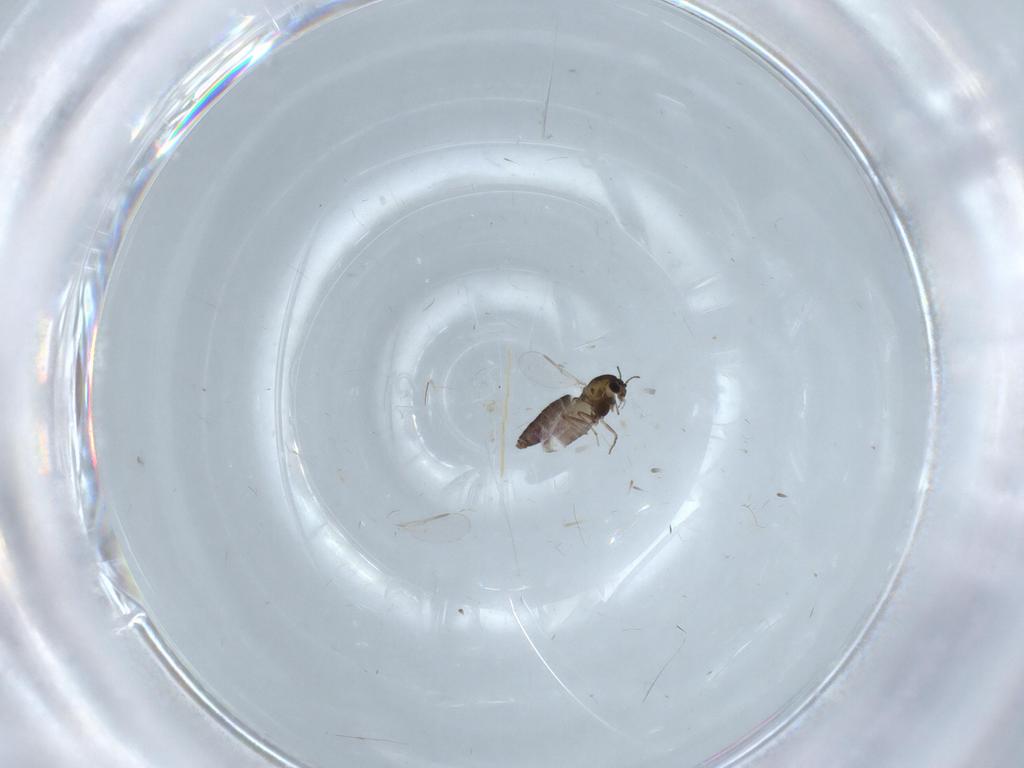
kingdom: Animalia
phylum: Arthropoda
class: Insecta
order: Diptera
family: Chironomidae
